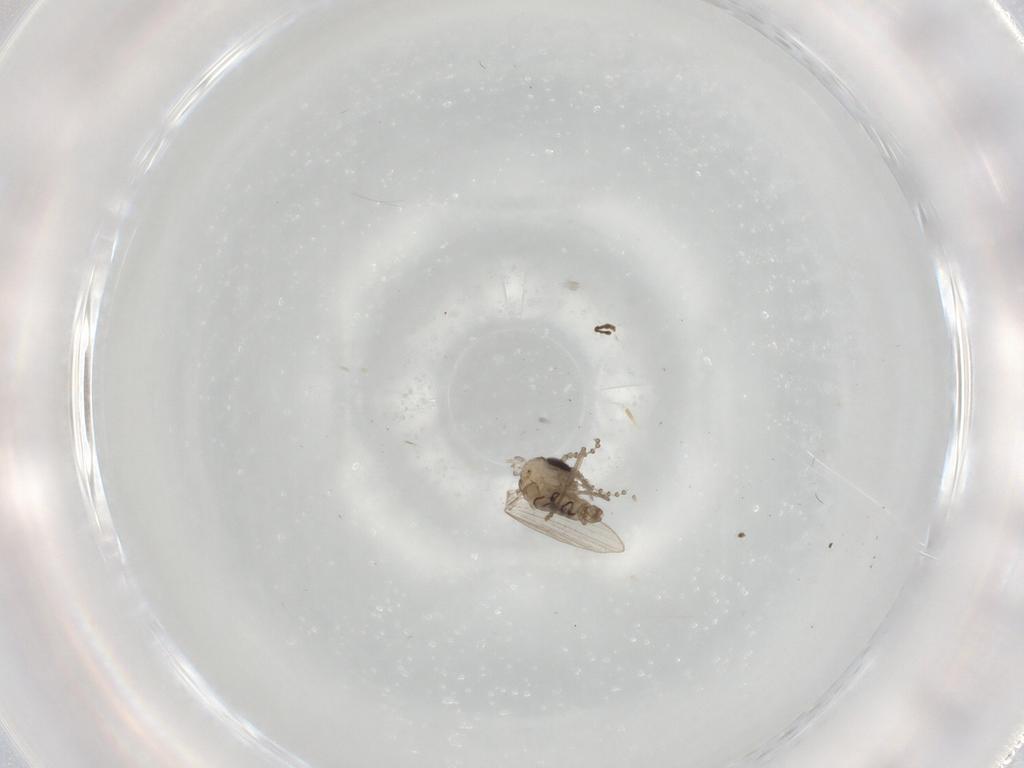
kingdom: Animalia
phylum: Arthropoda
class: Insecta
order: Diptera
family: Psychodidae
